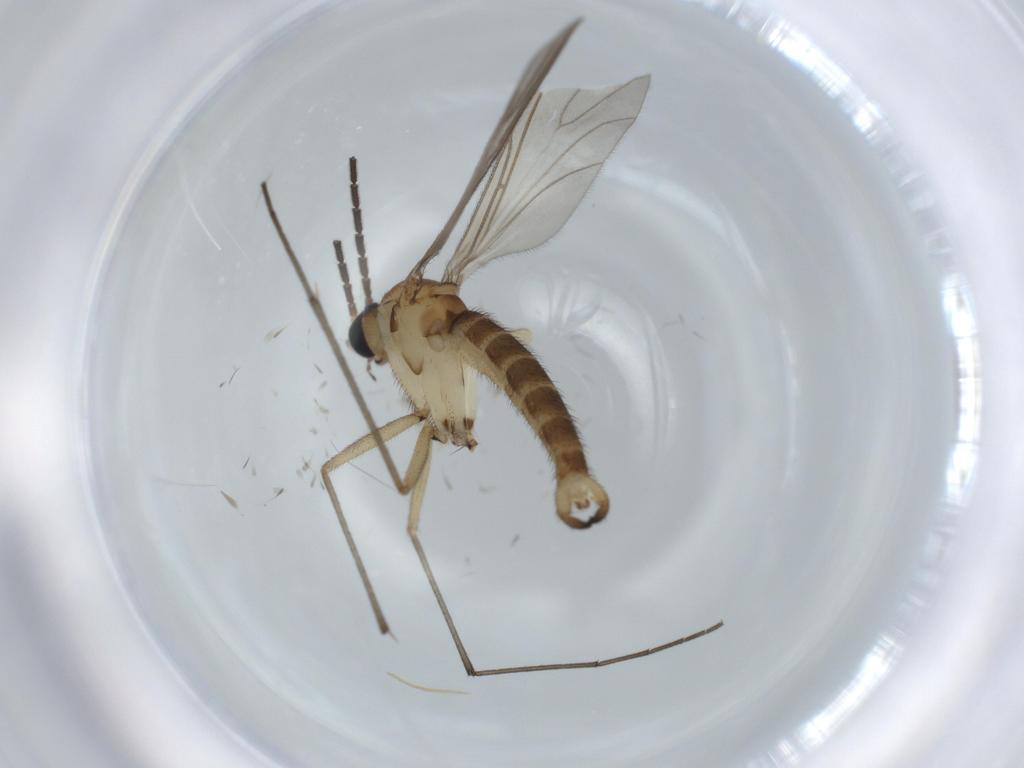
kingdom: Animalia
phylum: Arthropoda
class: Insecta
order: Diptera
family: Sciaridae
